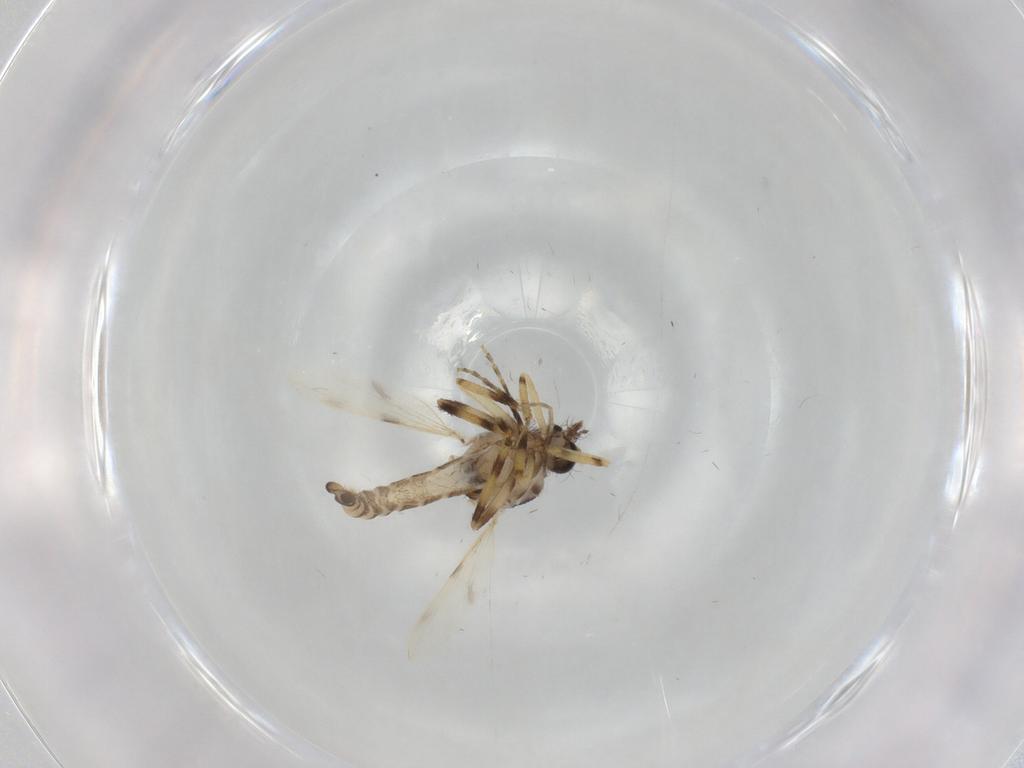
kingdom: Animalia
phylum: Arthropoda
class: Insecta
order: Diptera
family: Ceratopogonidae
